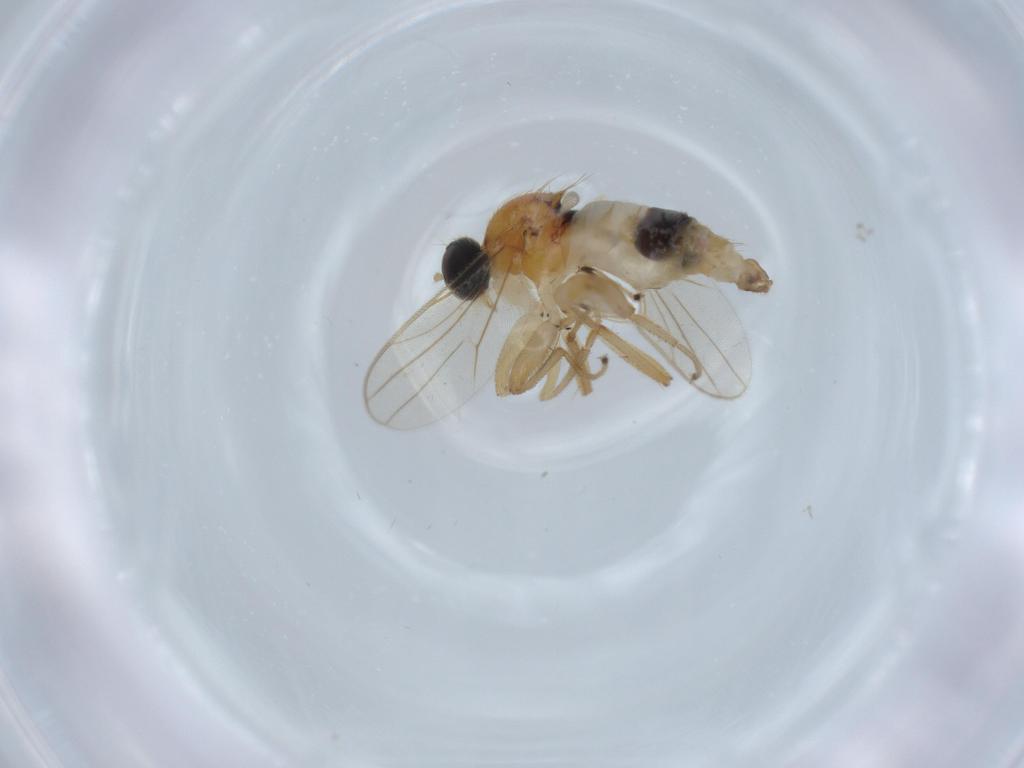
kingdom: Animalia
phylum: Arthropoda
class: Insecta
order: Diptera
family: Hybotidae
